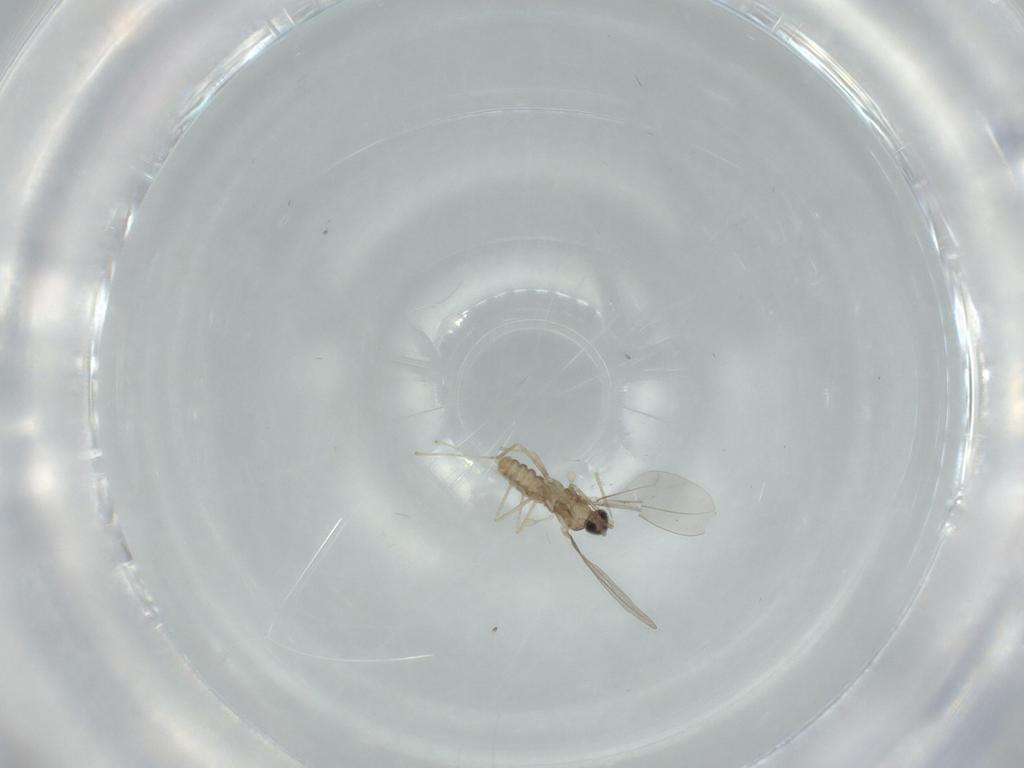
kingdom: Animalia
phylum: Arthropoda
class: Insecta
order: Diptera
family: Cecidomyiidae
